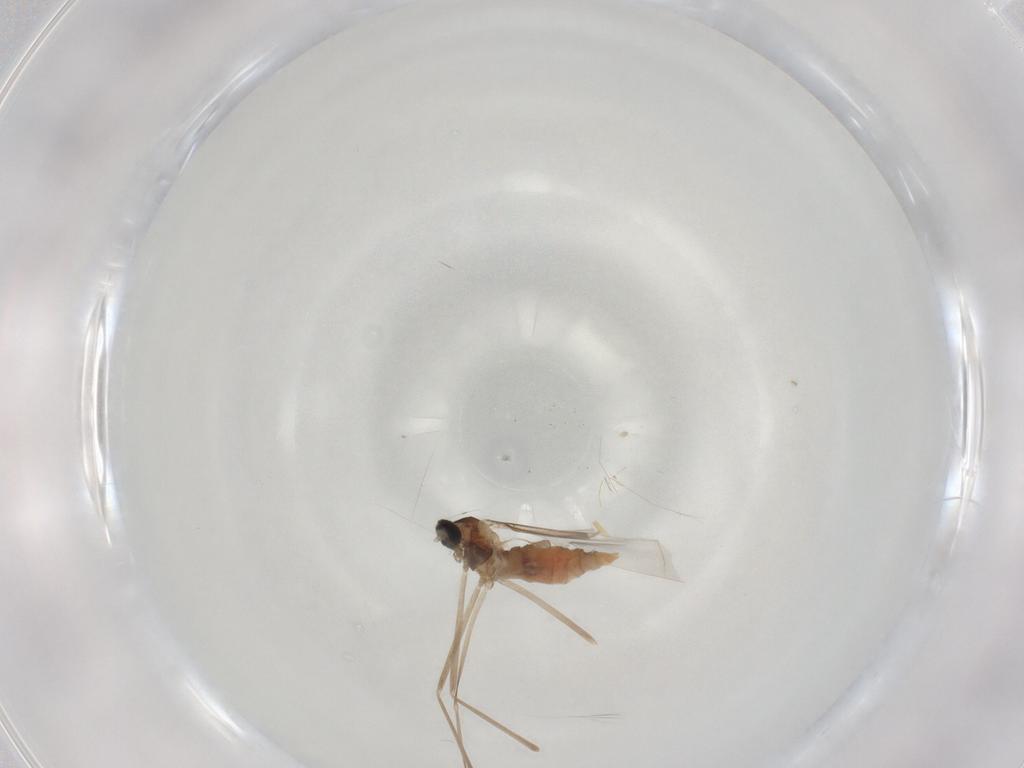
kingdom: Animalia
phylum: Arthropoda
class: Insecta
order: Diptera
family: Cecidomyiidae
